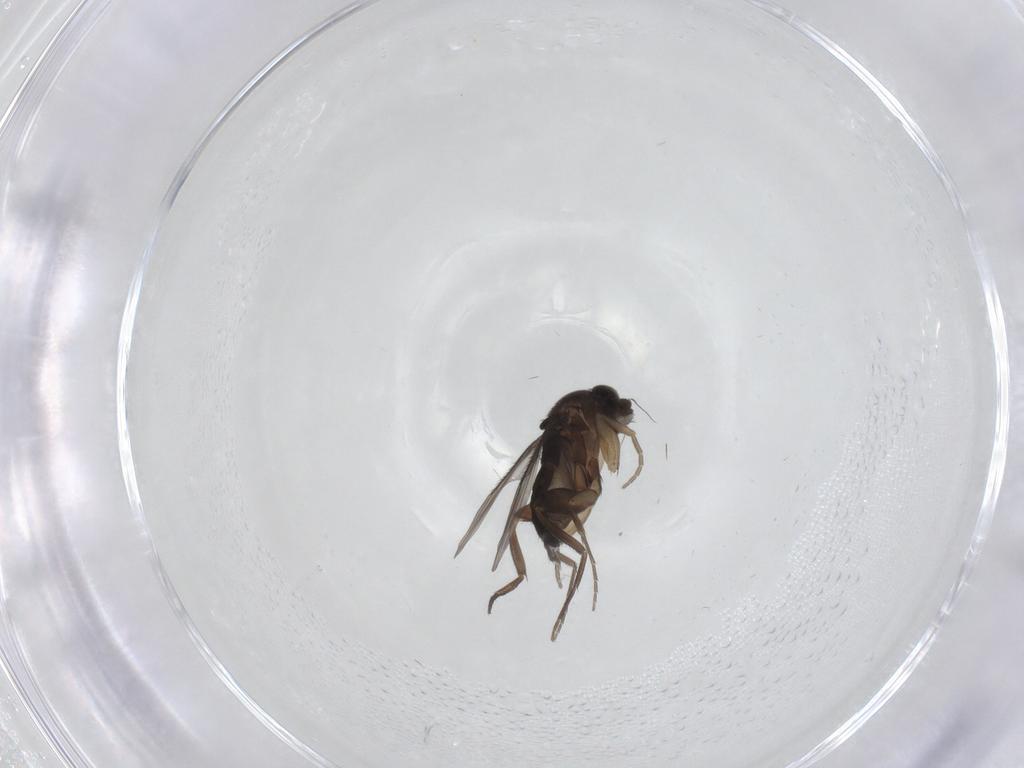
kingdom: Animalia
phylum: Arthropoda
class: Insecta
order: Diptera
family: Phoridae
